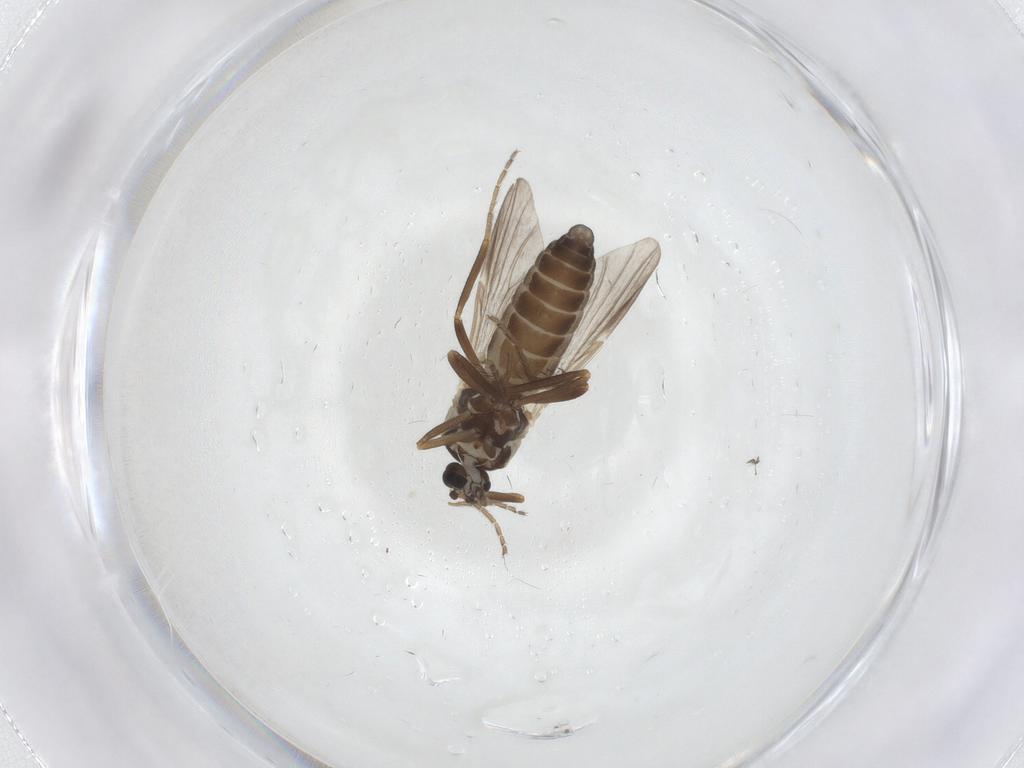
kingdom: Animalia
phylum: Arthropoda
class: Insecta
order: Diptera
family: Ceratopogonidae
